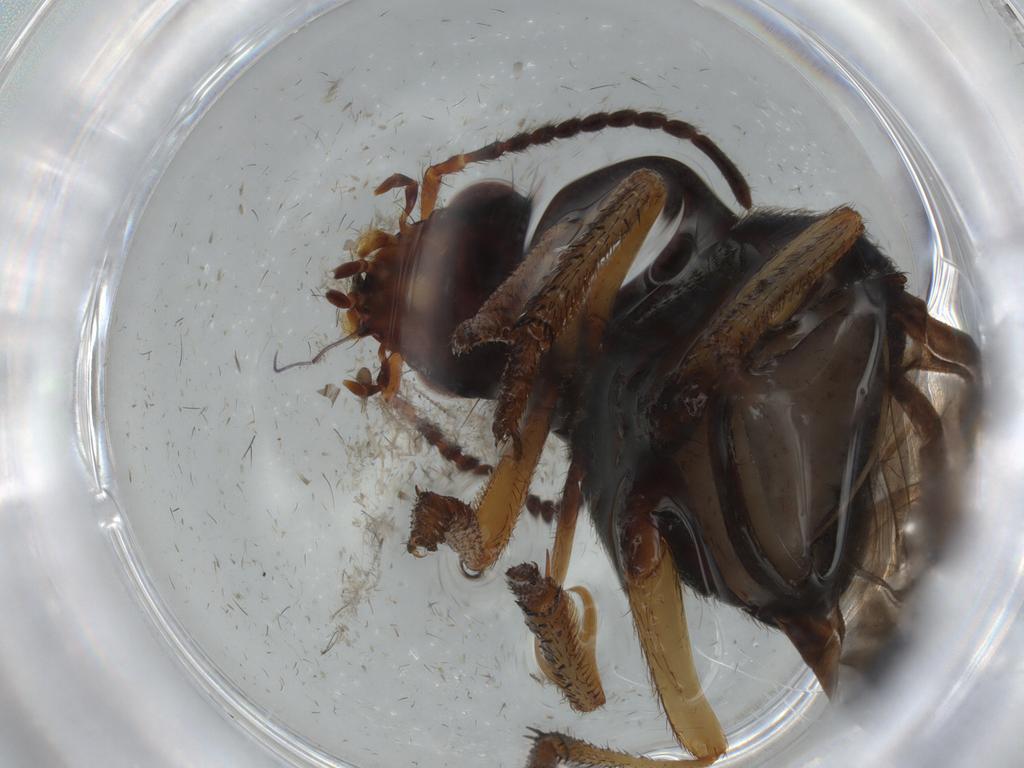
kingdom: Animalia
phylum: Arthropoda
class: Insecta
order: Coleoptera
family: Staphylinidae
